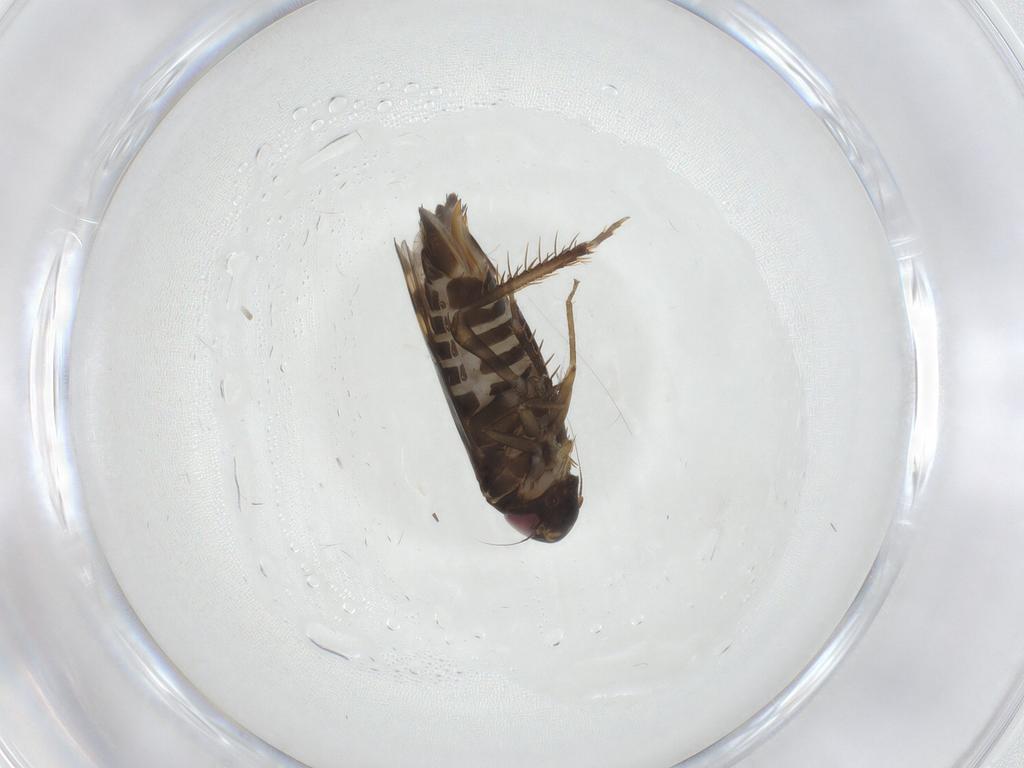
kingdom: Animalia
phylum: Arthropoda
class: Insecta
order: Hemiptera
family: Cicadellidae
